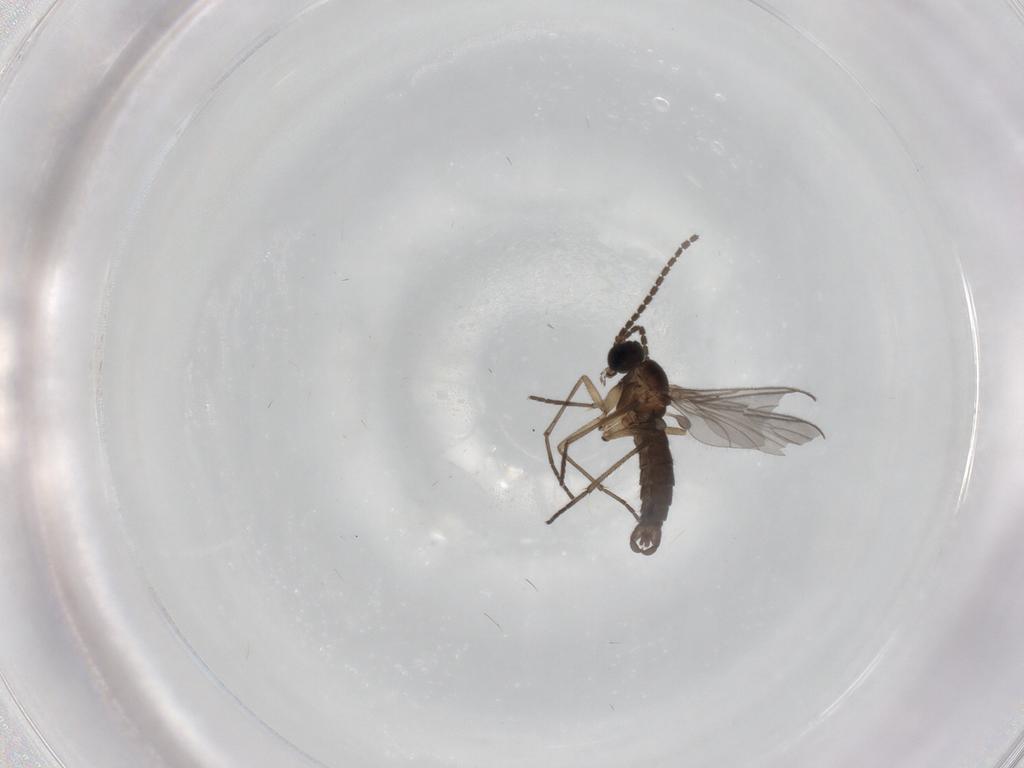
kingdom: Animalia
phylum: Arthropoda
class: Insecta
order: Diptera
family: Sciaridae
